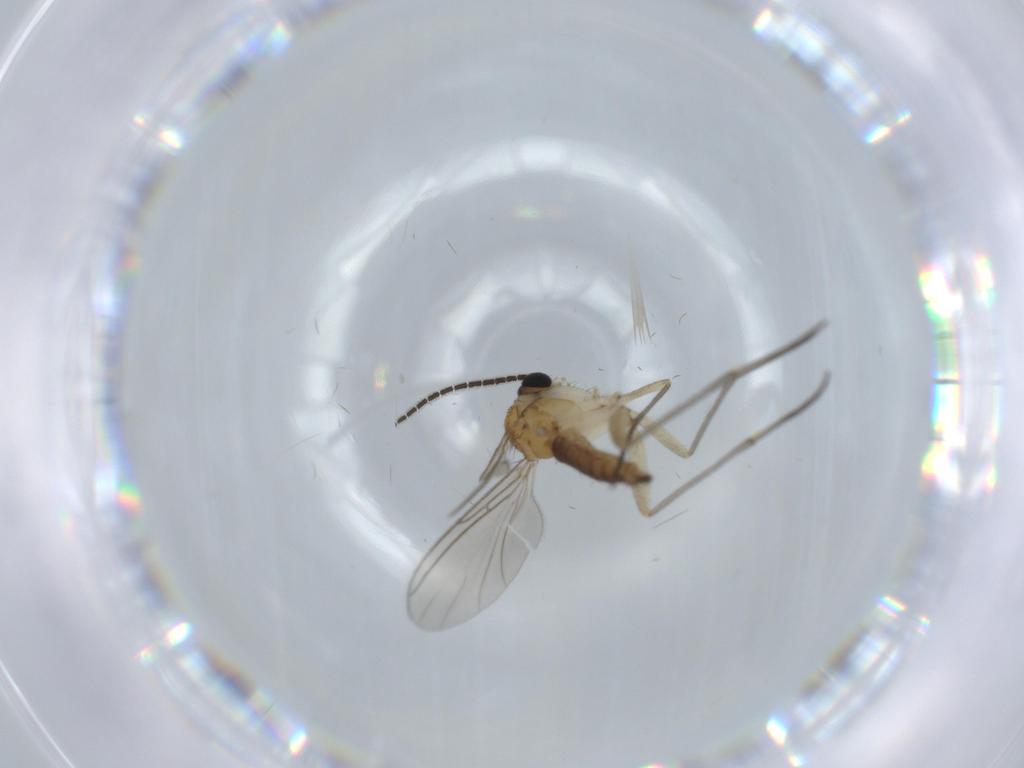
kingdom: Animalia
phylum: Arthropoda
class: Insecta
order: Diptera
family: Sciaridae
